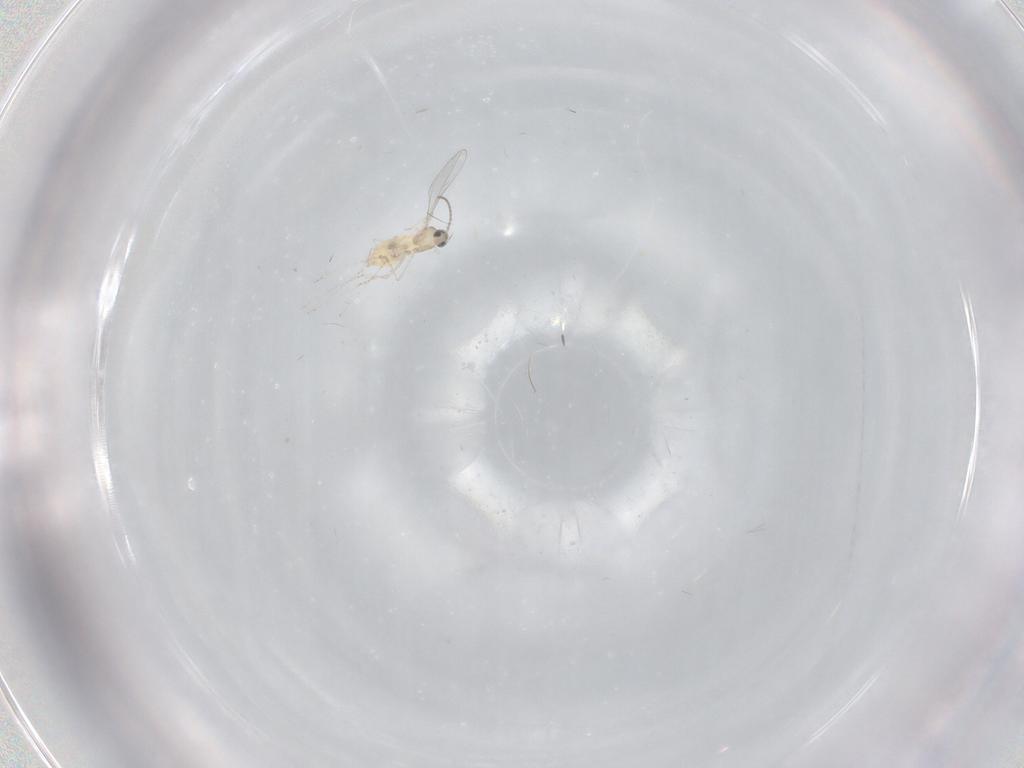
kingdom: Animalia
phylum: Arthropoda
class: Insecta
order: Diptera
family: Cecidomyiidae
